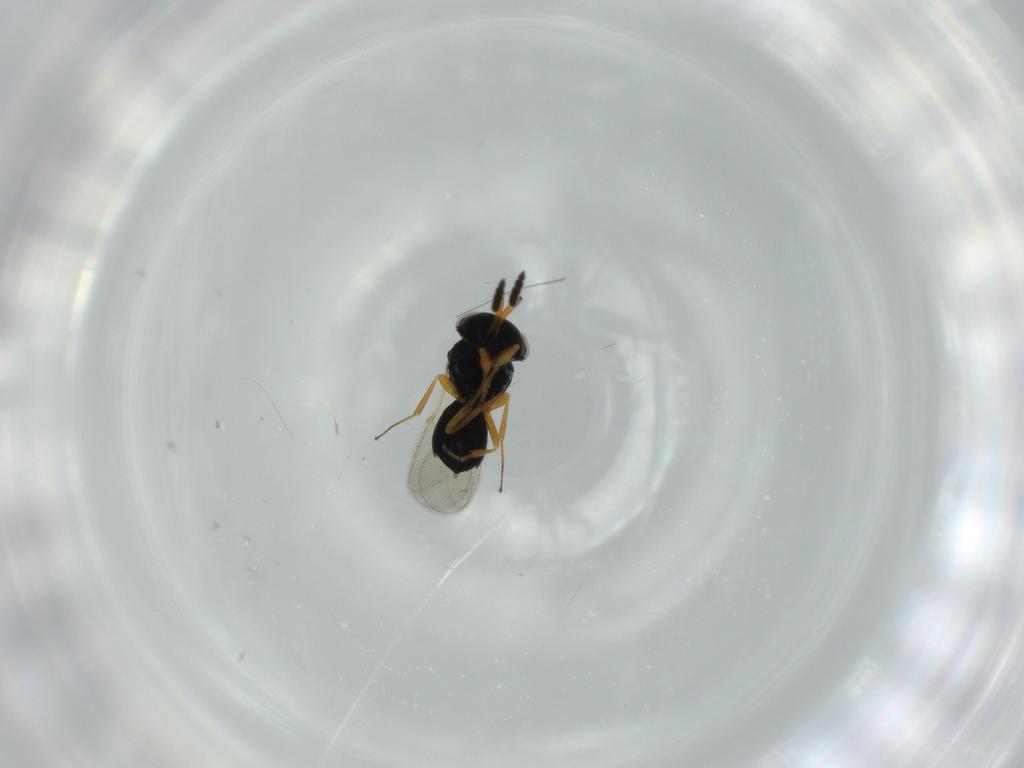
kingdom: Animalia
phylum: Arthropoda
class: Insecta
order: Hymenoptera
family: Scelionidae
